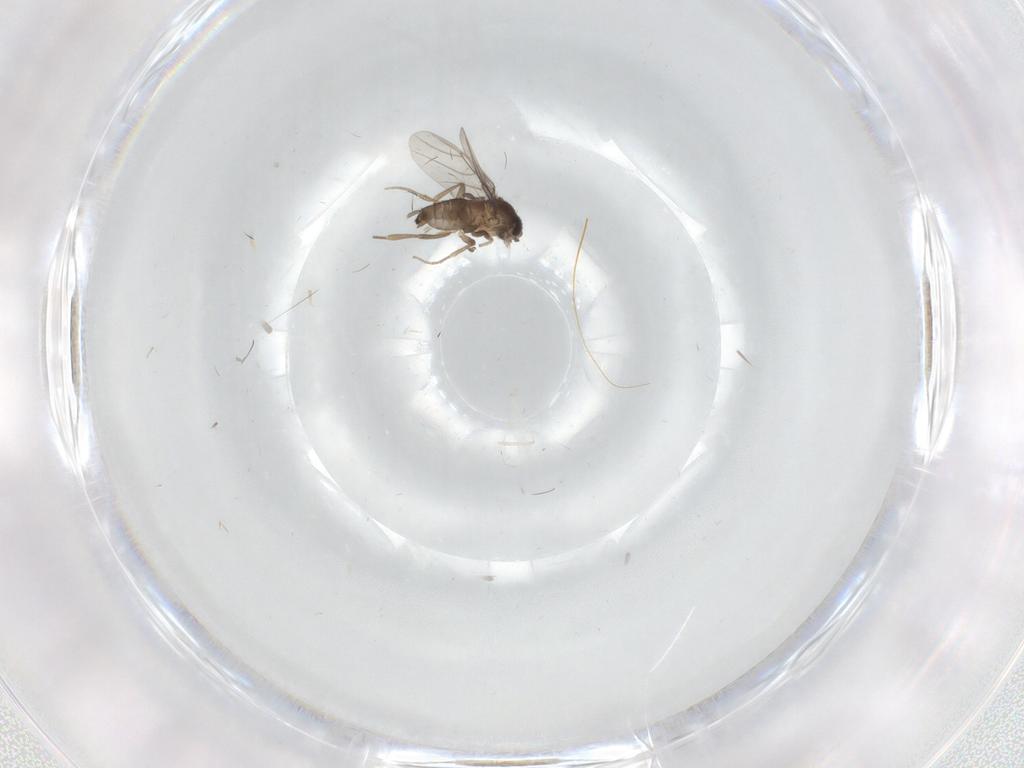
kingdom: Animalia
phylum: Arthropoda
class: Insecta
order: Diptera
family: Phoridae
